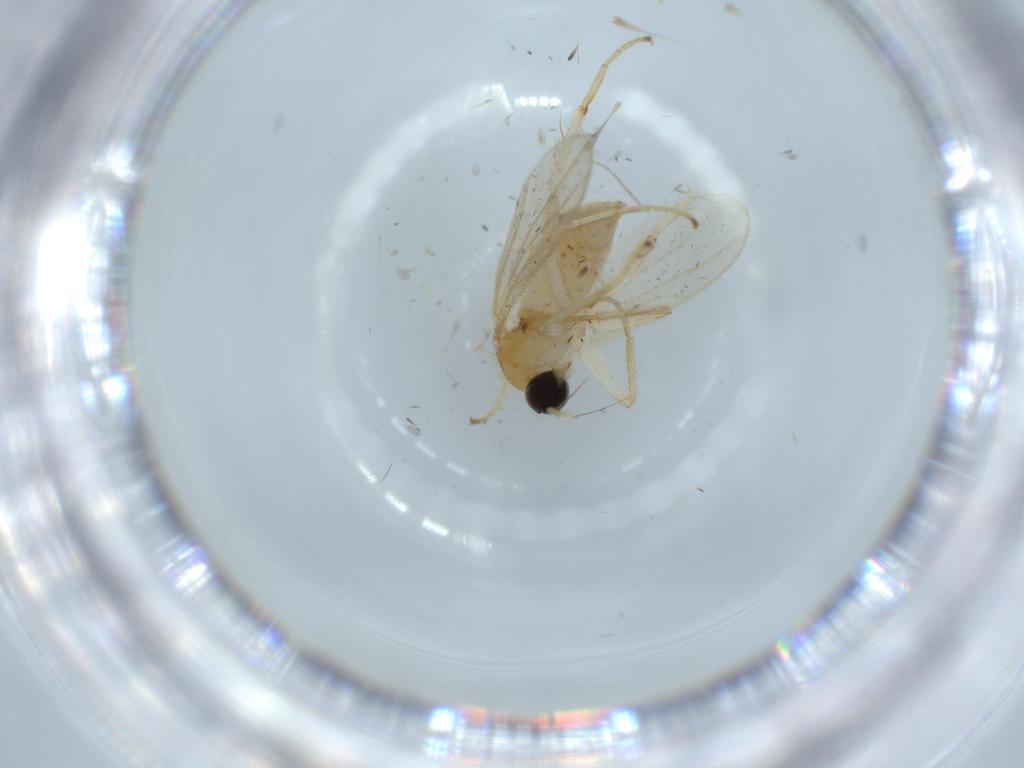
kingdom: Animalia
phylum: Arthropoda
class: Insecta
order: Diptera
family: Hybotidae
